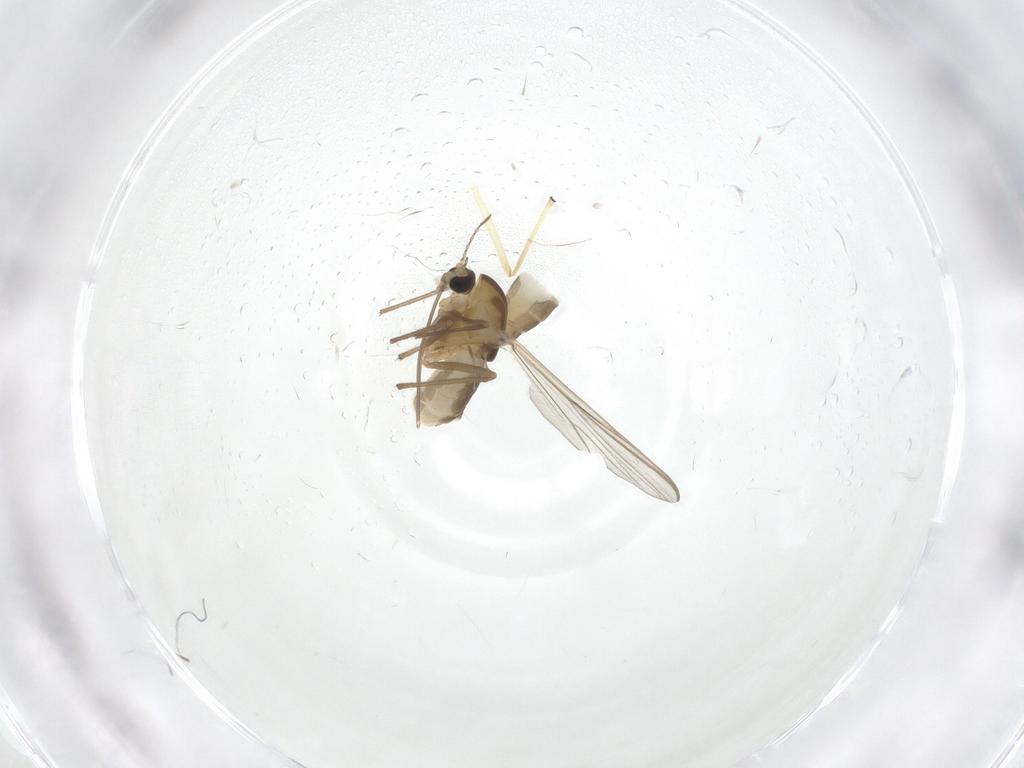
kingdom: Animalia
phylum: Arthropoda
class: Insecta
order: Diptera
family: Chironomidae
